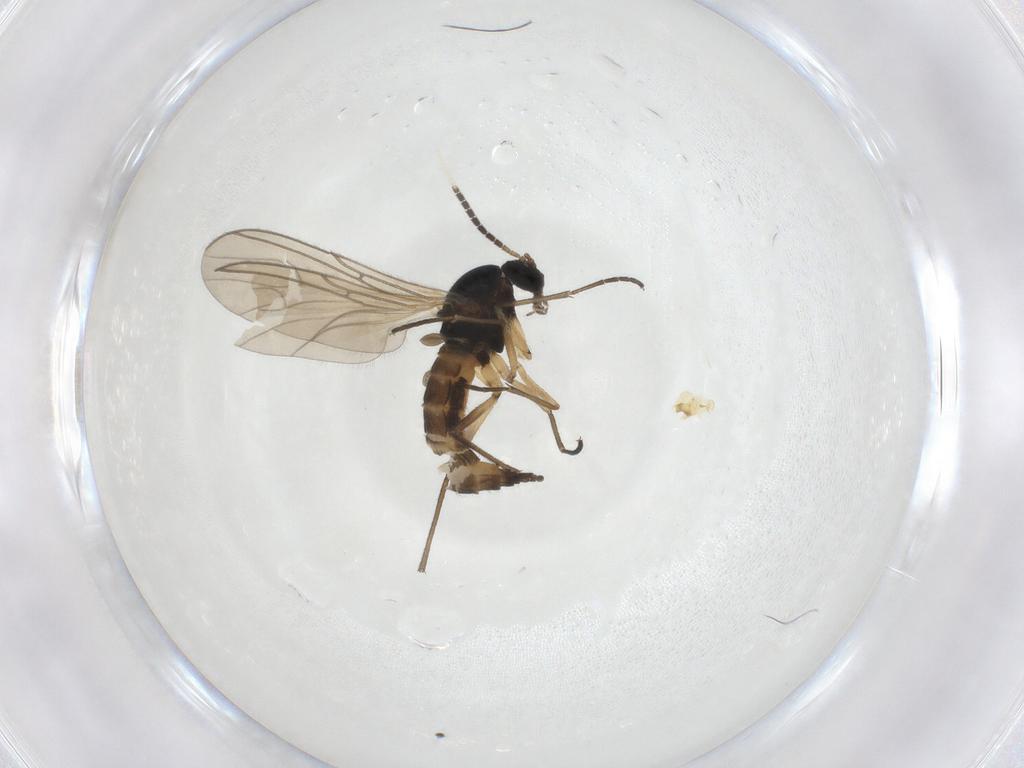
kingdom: Animalia
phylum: Arthropoda
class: Insecta
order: Diptera
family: Sciaridae
